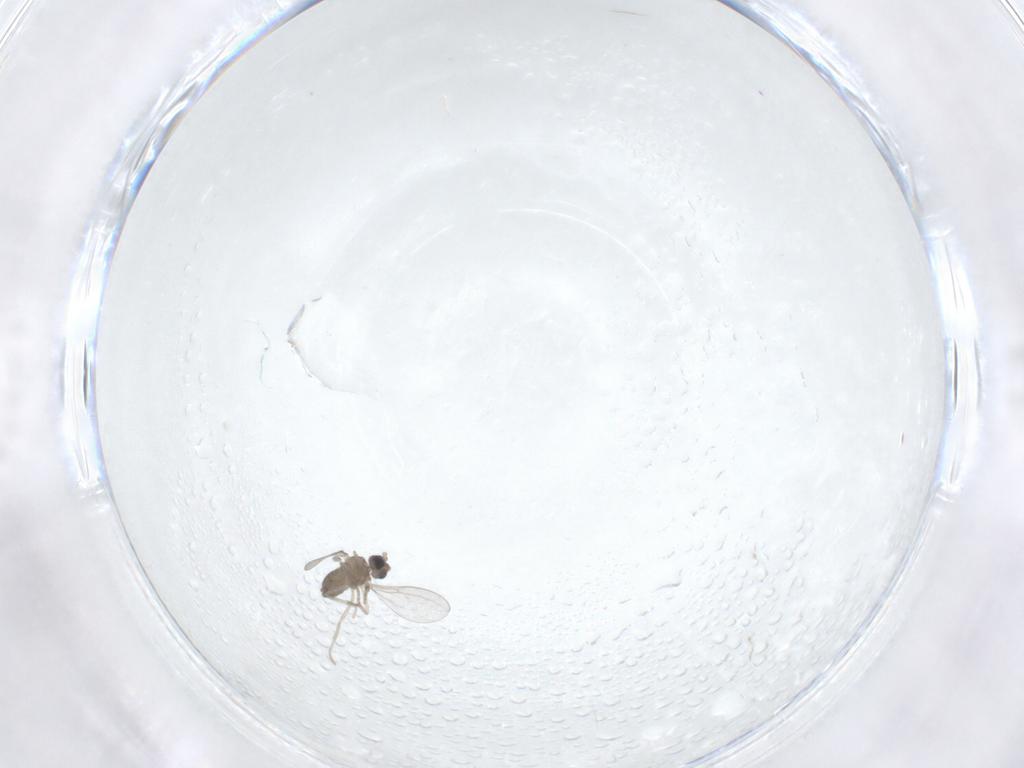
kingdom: Animalia
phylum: Arthropoda
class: Insecta
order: Diptera
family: Cecidomyiidae
